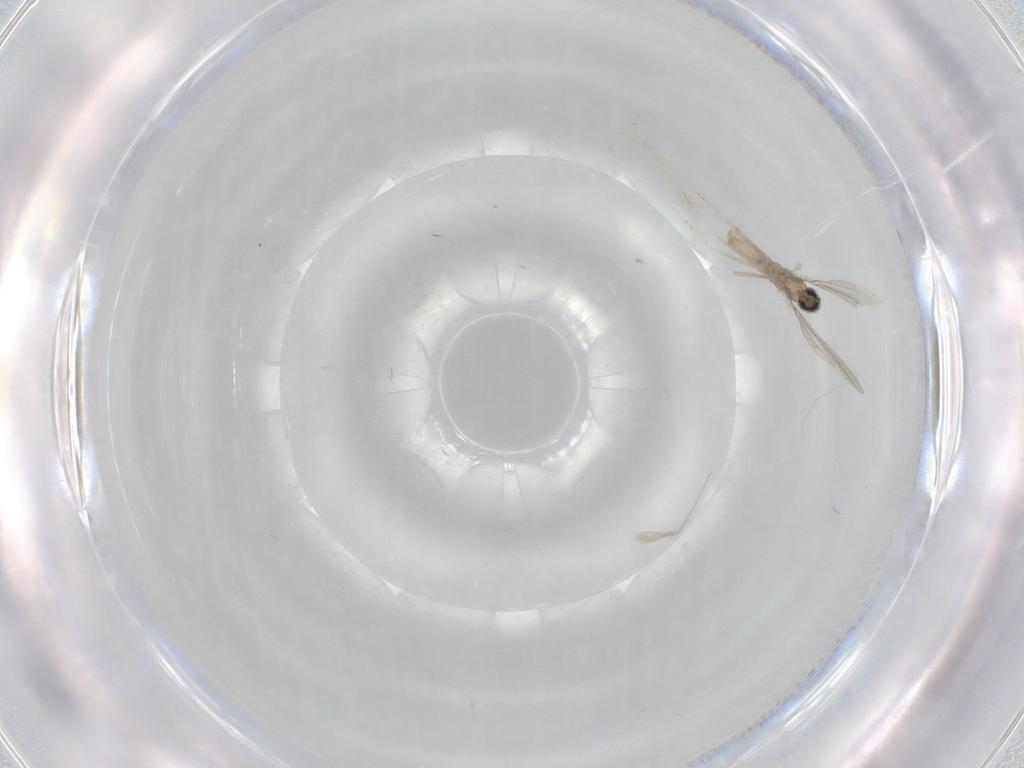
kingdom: Animalia
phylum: Arthropoda
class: Insecta
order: Diptera
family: Cecidomyiidae
